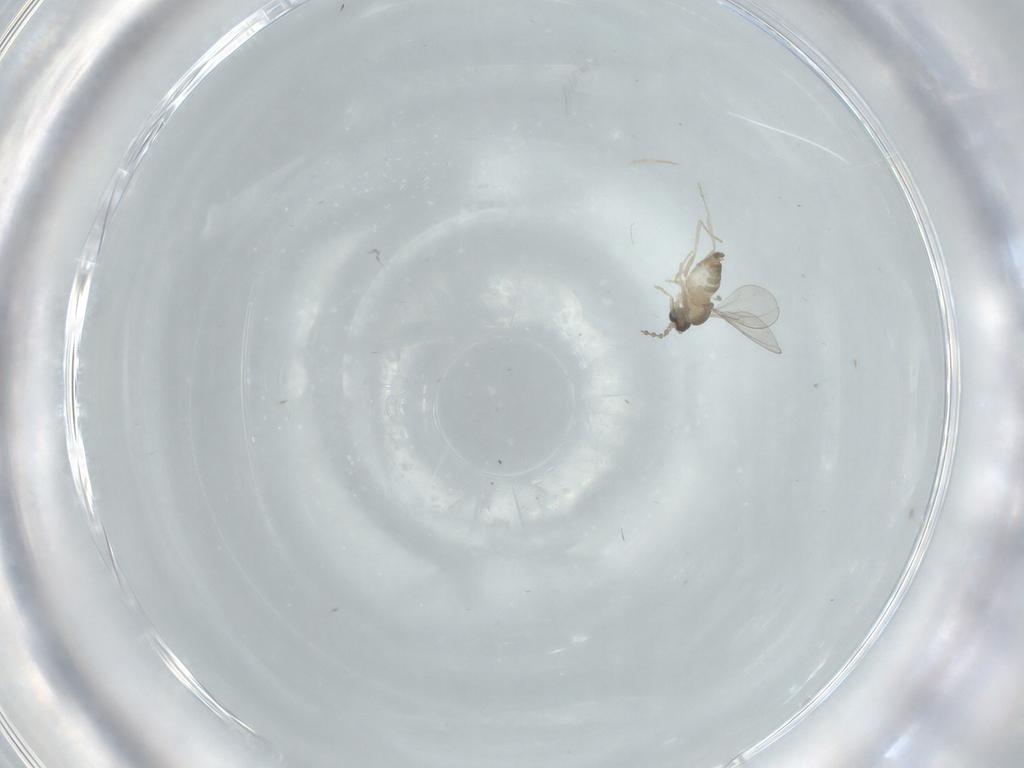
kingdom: Animalia
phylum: Arthropoda
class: Insecta
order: Diptera
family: Cecidomyiidae
